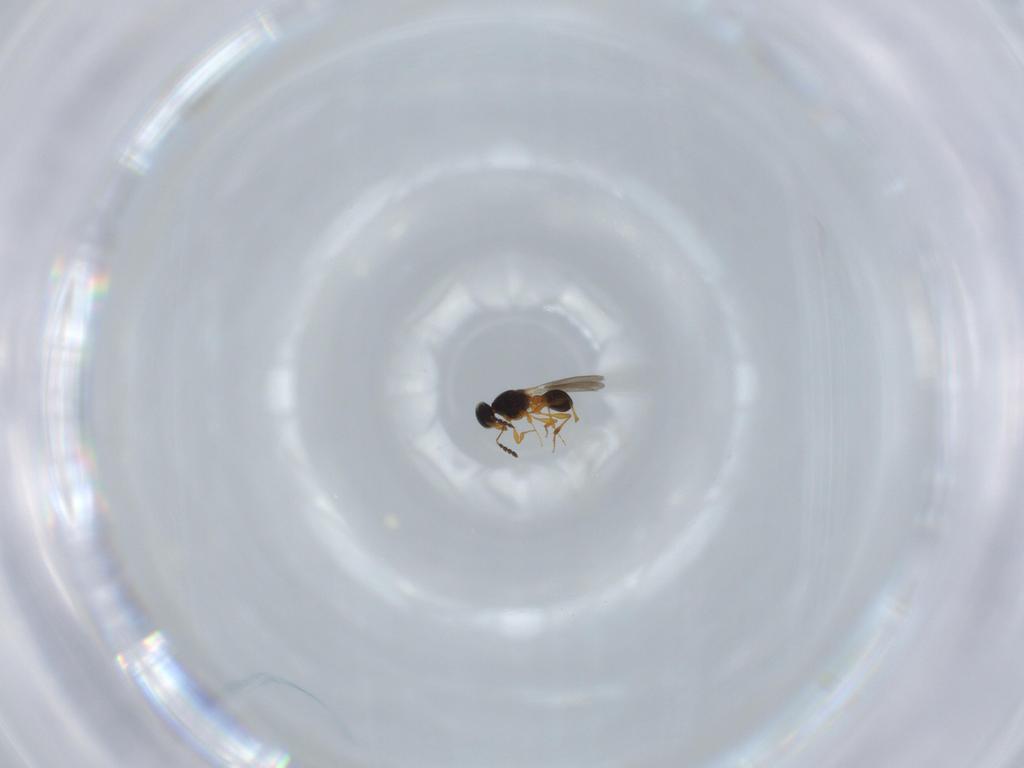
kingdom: Animalia
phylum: Arthropoda
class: Insecta
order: Hymenoptera
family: Platygastridae
